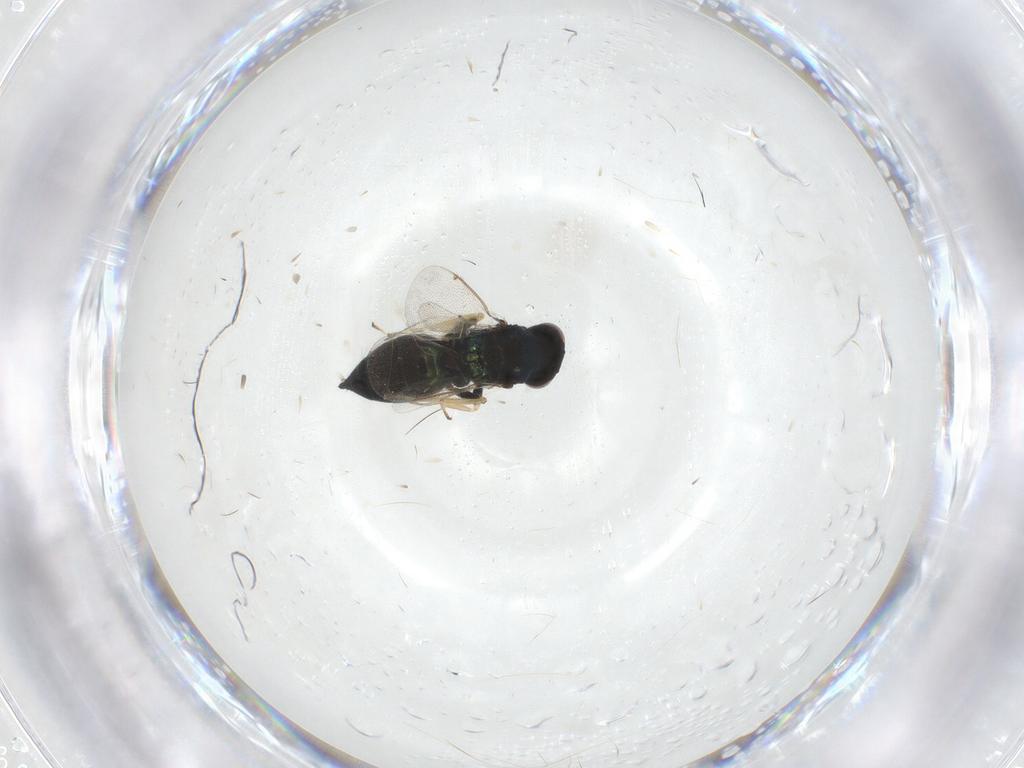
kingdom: Animalia
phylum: Arthropoda
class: Insecta
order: Hymenoptera
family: Eulophidae
